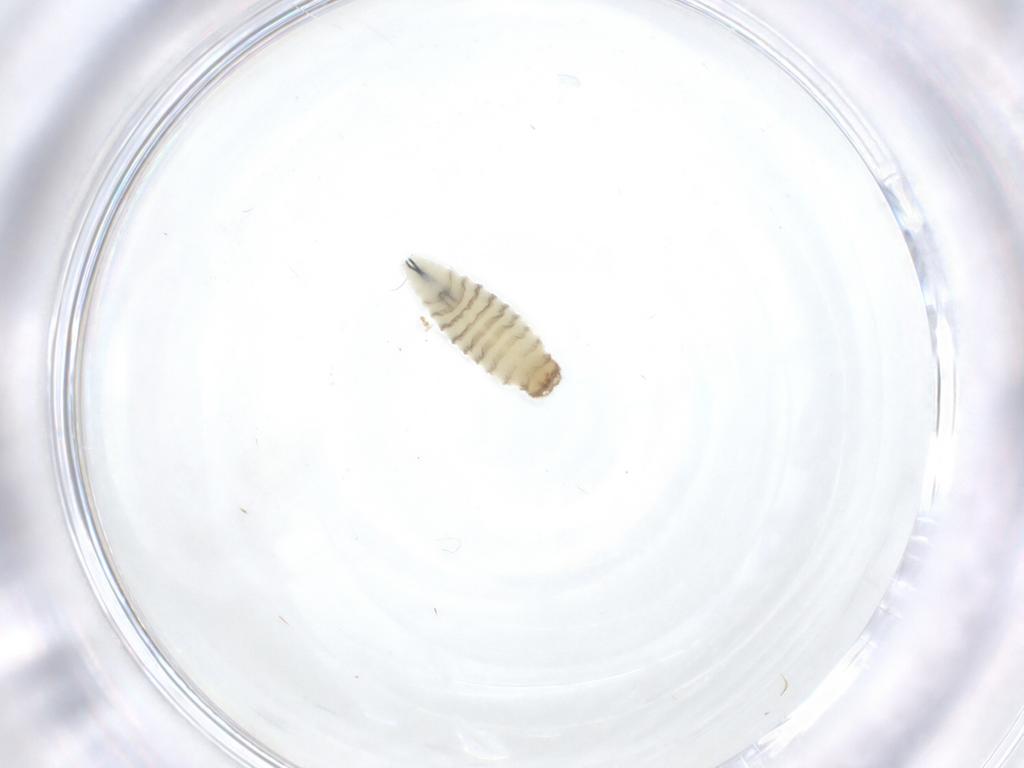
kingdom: Animalia
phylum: Arthropoda
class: Insecta
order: Diptera
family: Sarcophagidae
